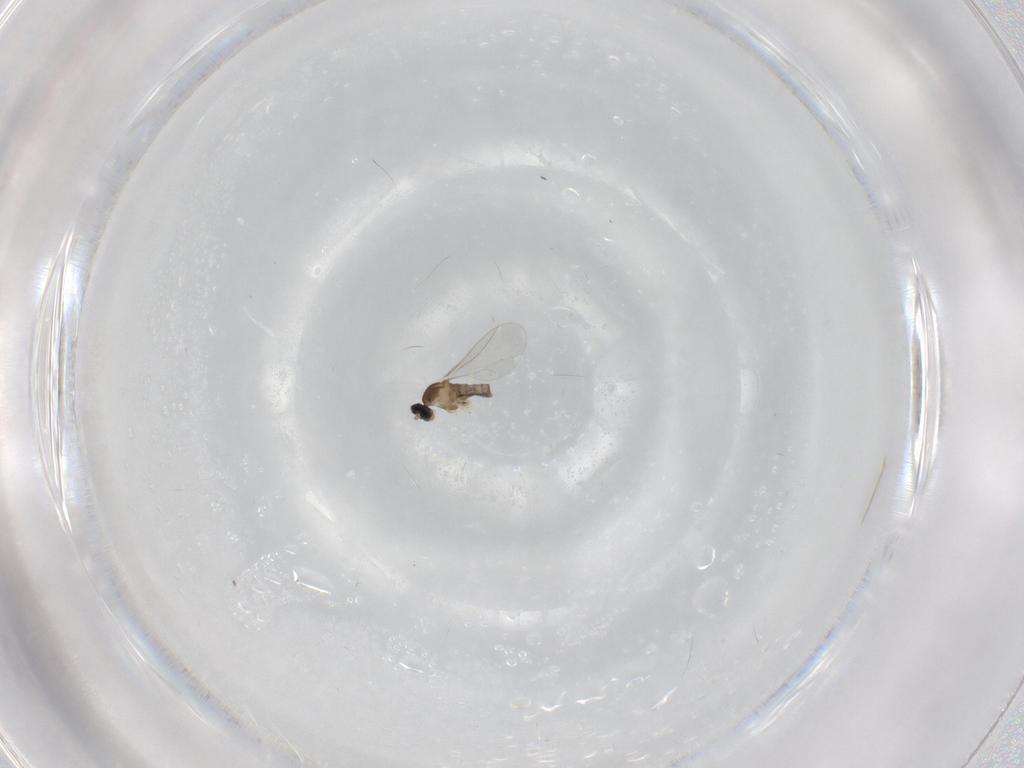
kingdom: Animalia
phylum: Arthropoda
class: Insecta
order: Diptera
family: Cecidomyiidae
